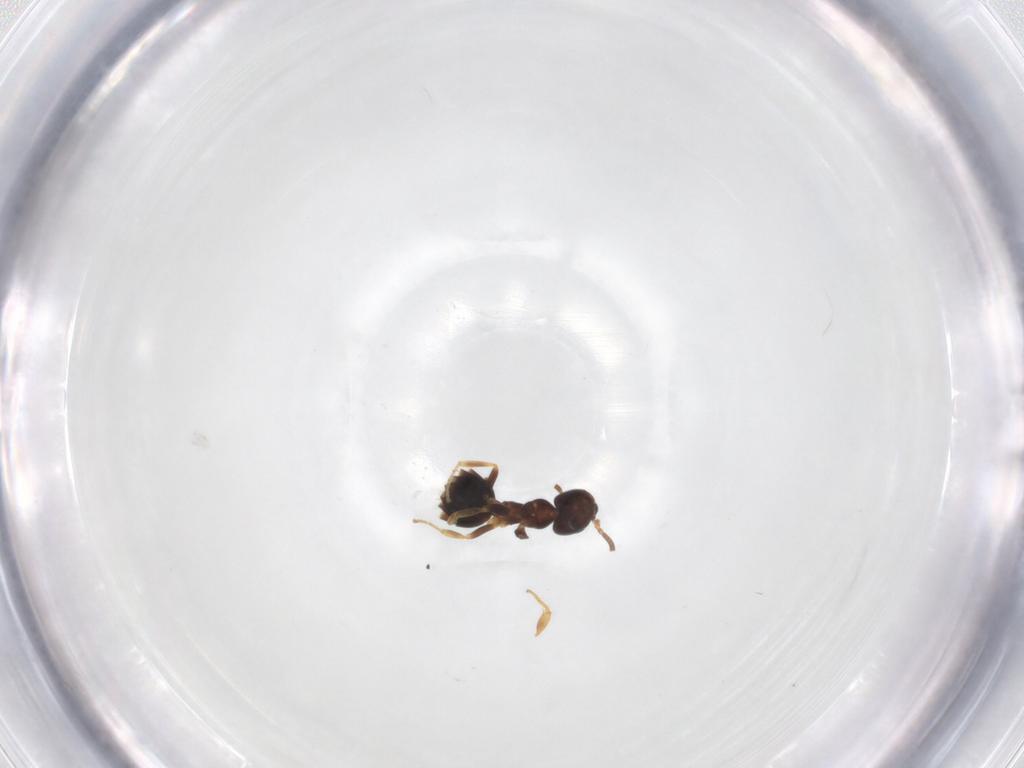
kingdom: Animalia
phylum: Arthropoda
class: Insecta
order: Hymenoptera
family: Formicidae
